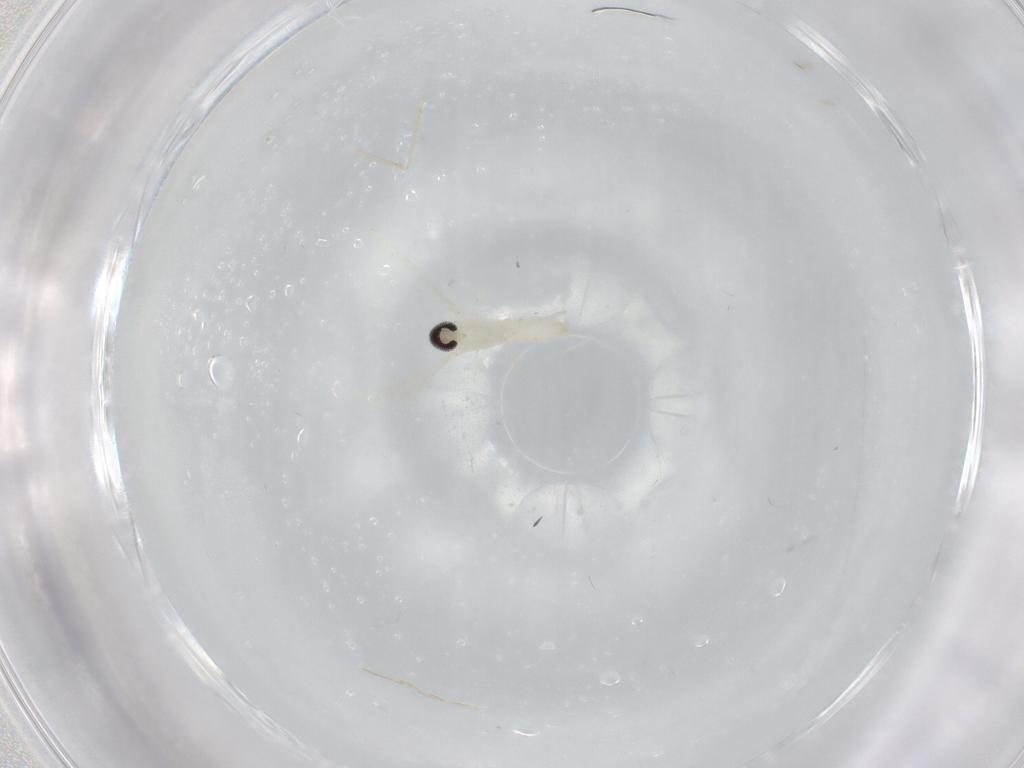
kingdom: Animalia
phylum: Arthropoda
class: Insecta
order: Diptera
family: Cecidomyiidae
